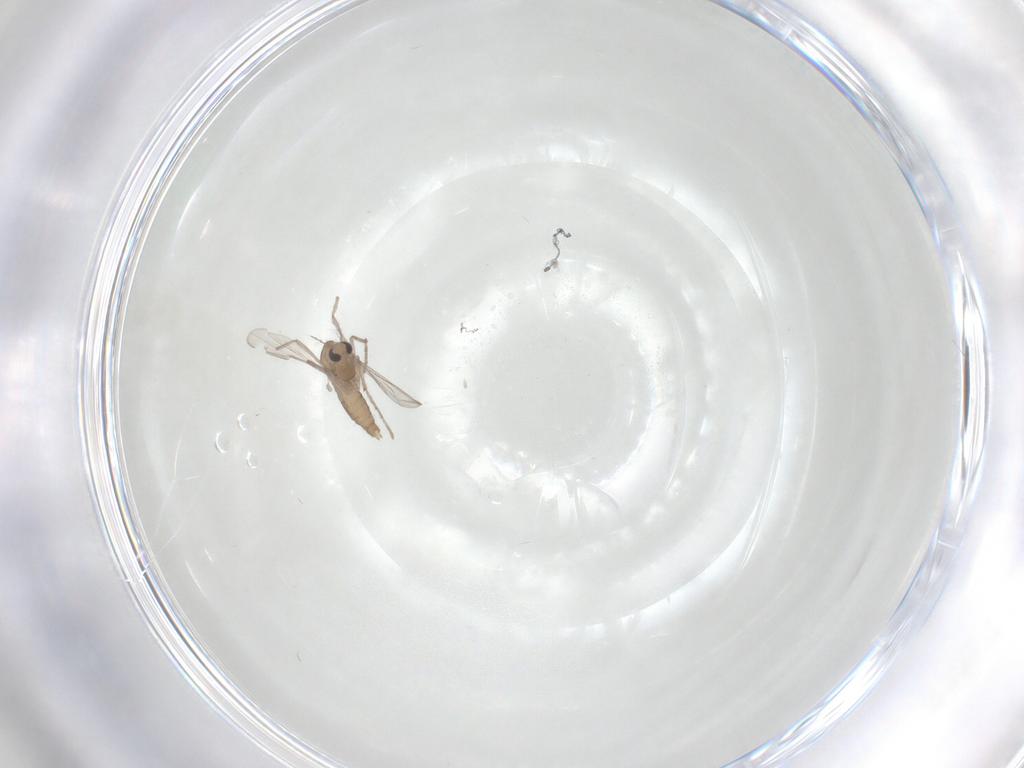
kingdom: Animalia
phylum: Arthropoda
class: Insecta
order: Diptera
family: Chironomidae
